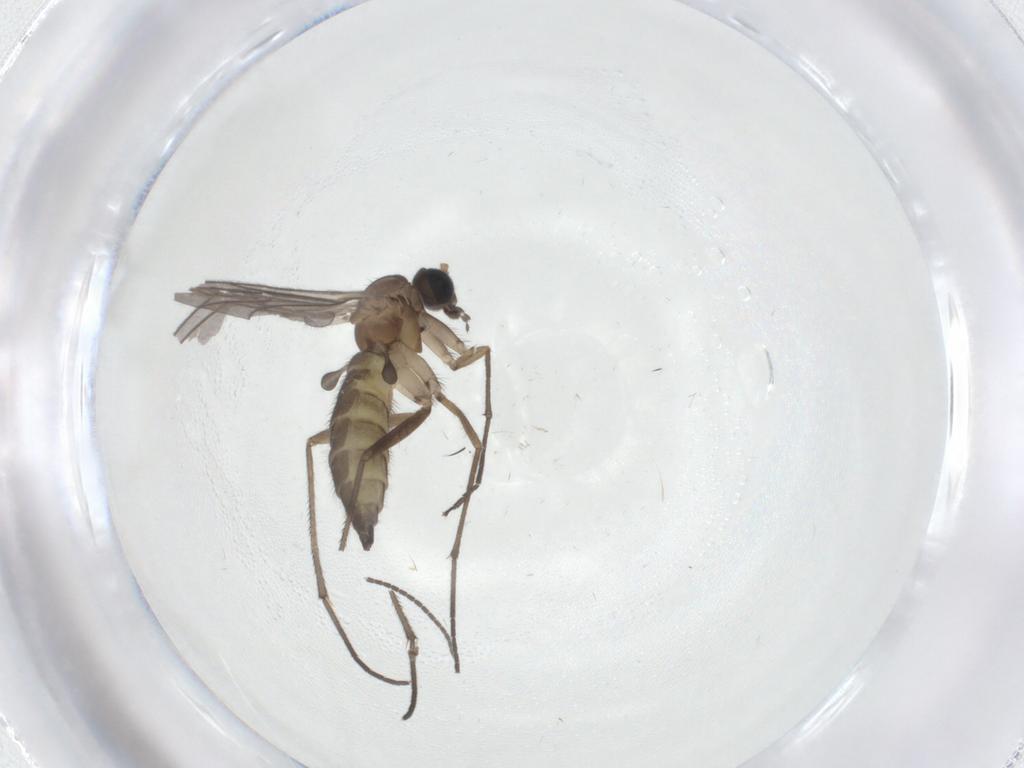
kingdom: Animalia
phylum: Arthropoda
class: Insecta
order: Diptera
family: Sciaridae
